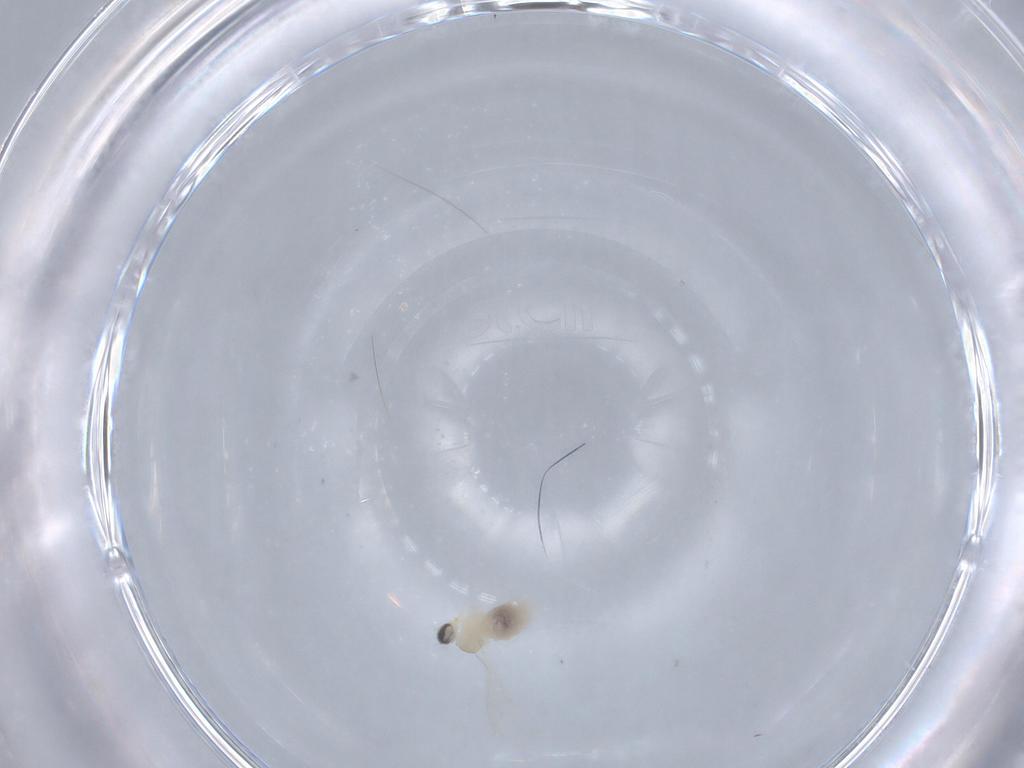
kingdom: Animalia
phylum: Arthropoda
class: Insecta
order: Diptera
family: Cecidomyiidae
